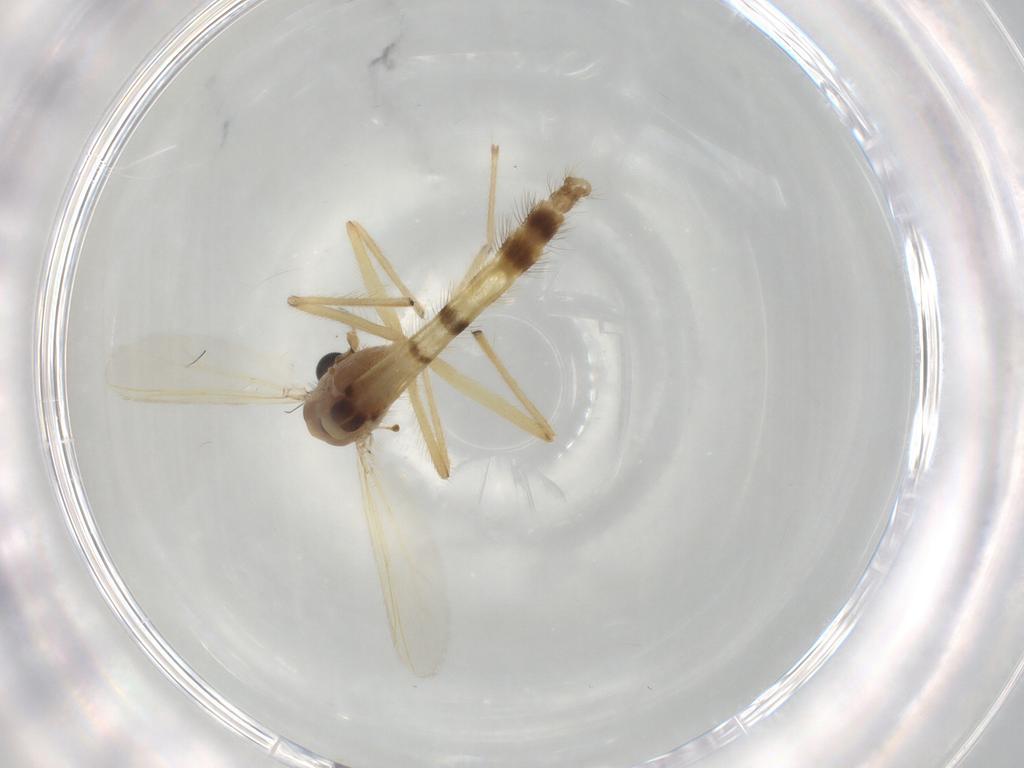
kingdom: Animalia
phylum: Arthropoda
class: Insecta
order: Diptera
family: Chironomidae
